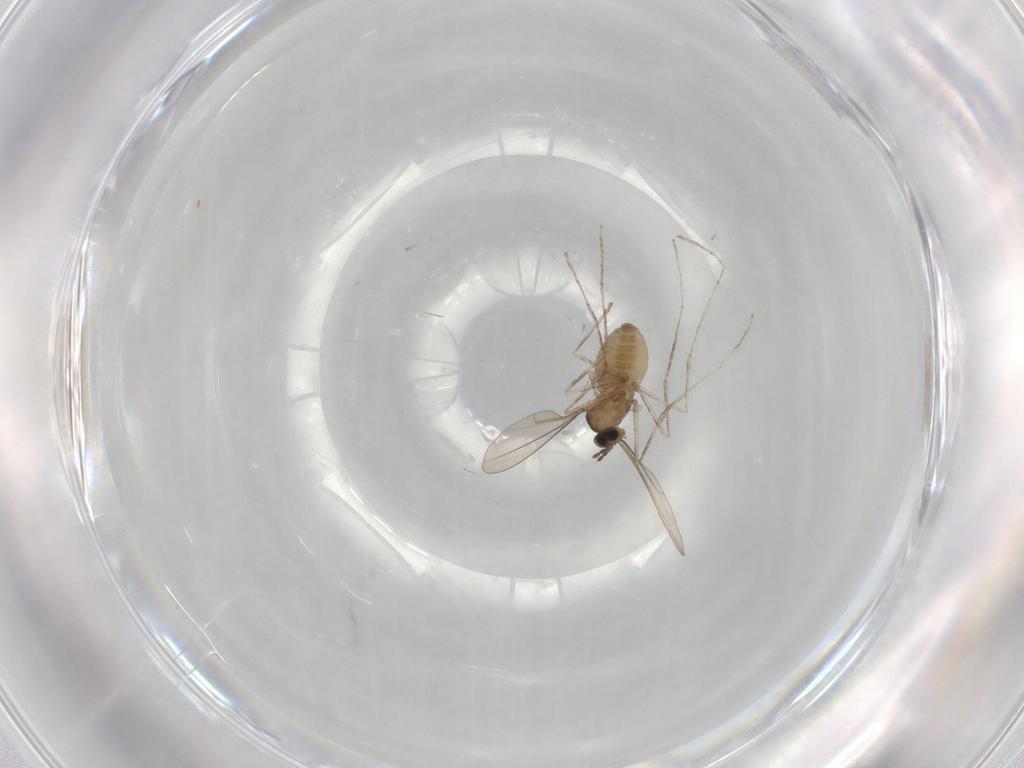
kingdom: Animalia
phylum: Arthropoda
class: Insecta
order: Diptera
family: Cecidomyiidae
